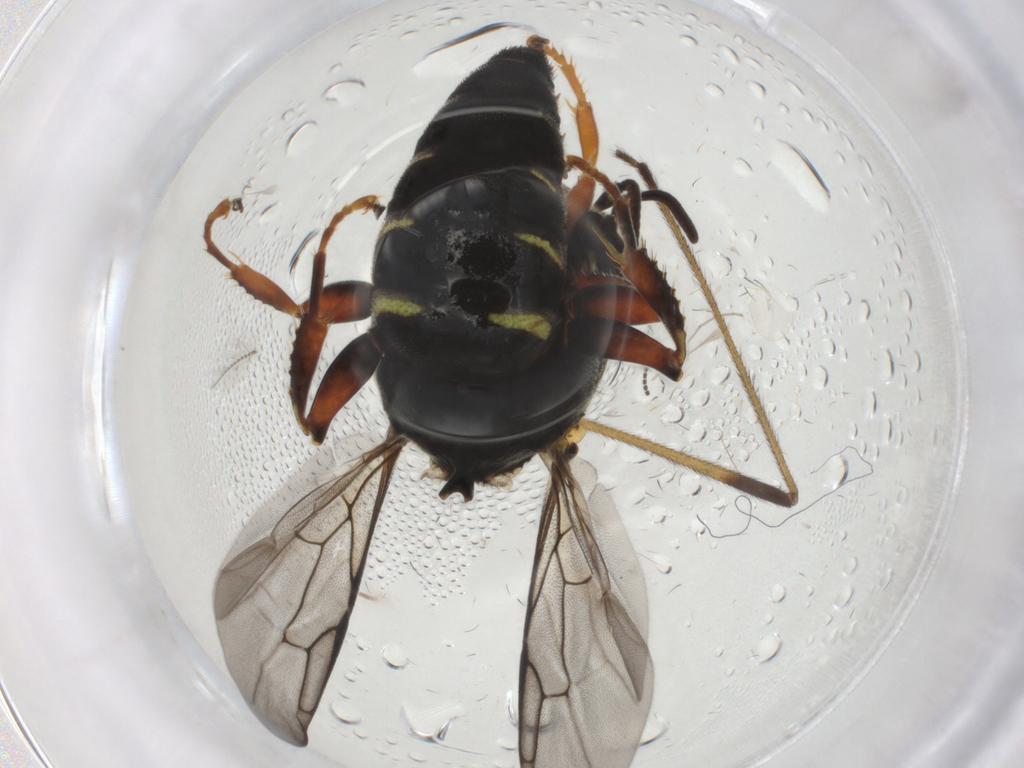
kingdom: Animalia
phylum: Arthropoda
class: Insecta
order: Hymenoptera
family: Crabronidae
